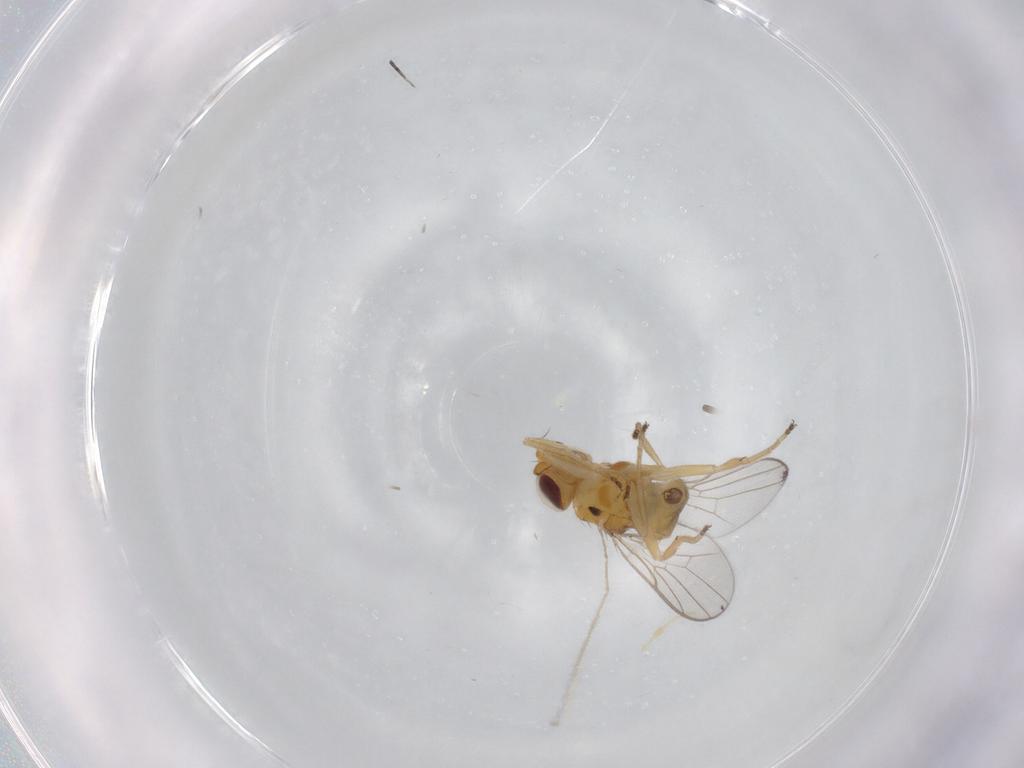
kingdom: Animalia
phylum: Arthropoda
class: Insecta
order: Diptera
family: Chloropidae
